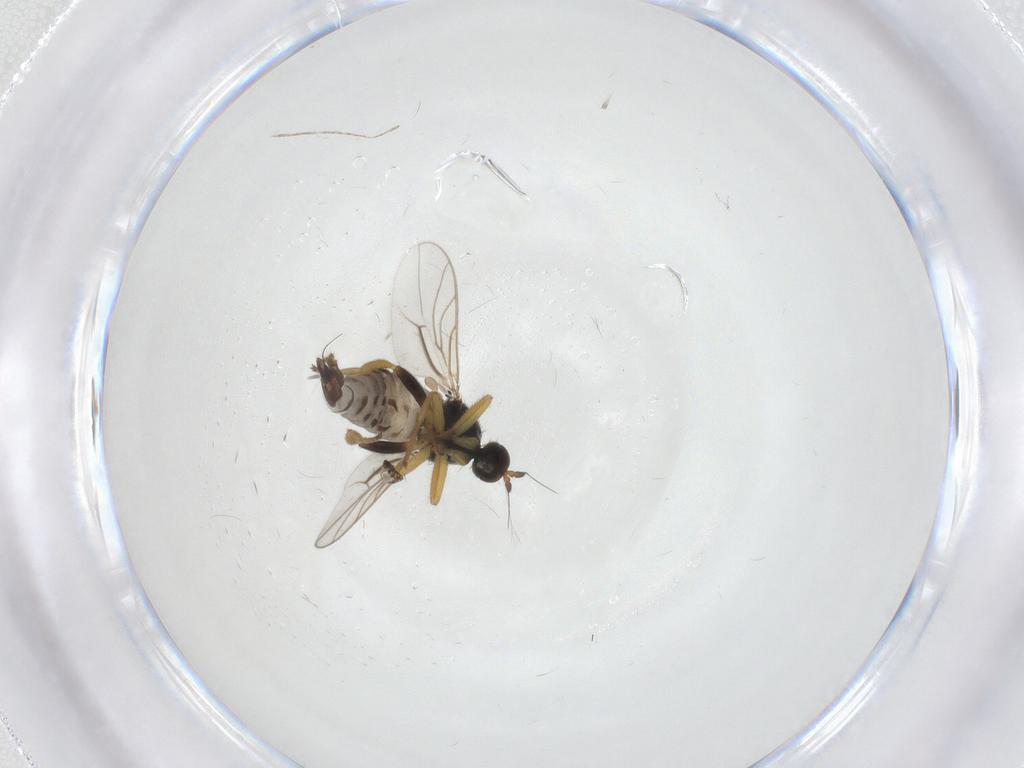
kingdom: Animalia
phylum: Arthropoda
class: Insecta
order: Diptera
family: Hybotidae
